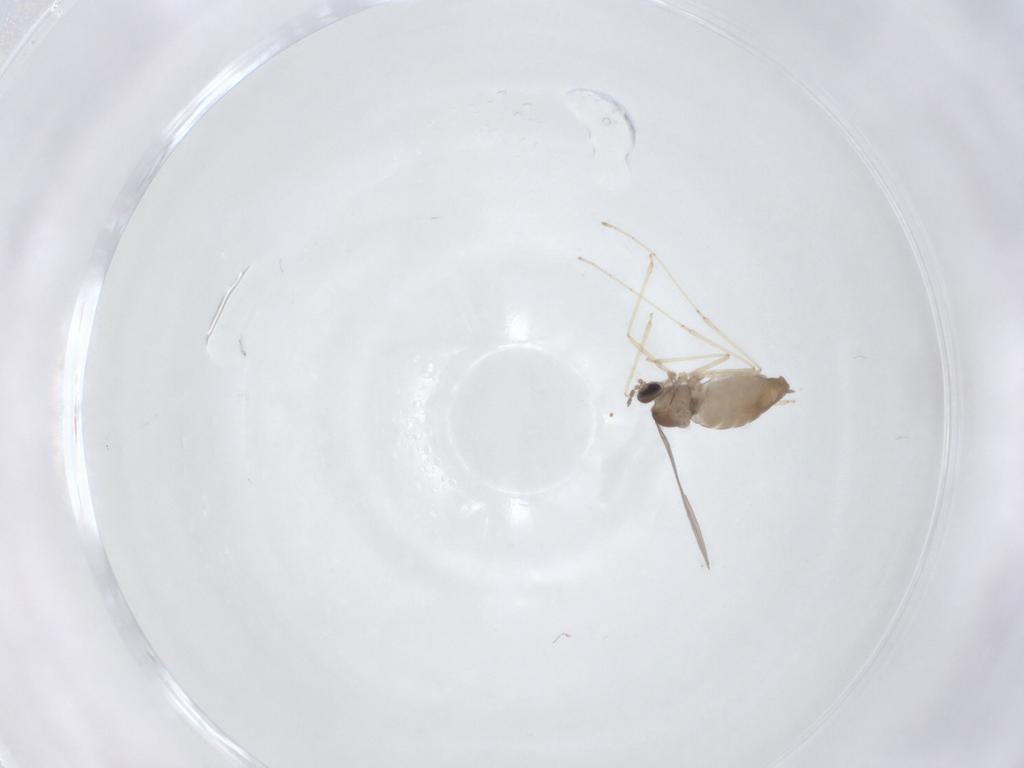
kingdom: Animalia
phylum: Arthropoda
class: Insecta
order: Diptera
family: Cecidomyiidae
